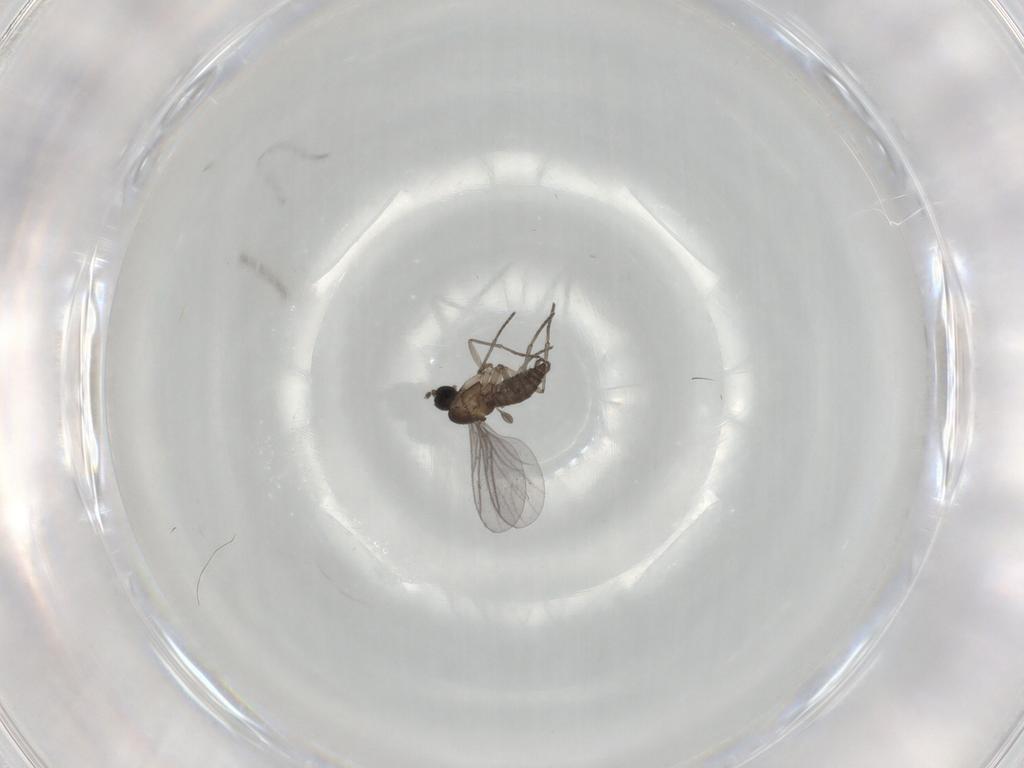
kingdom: Animalia
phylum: Arthropoda
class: Insecta
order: Diptera
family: Sciaridae
